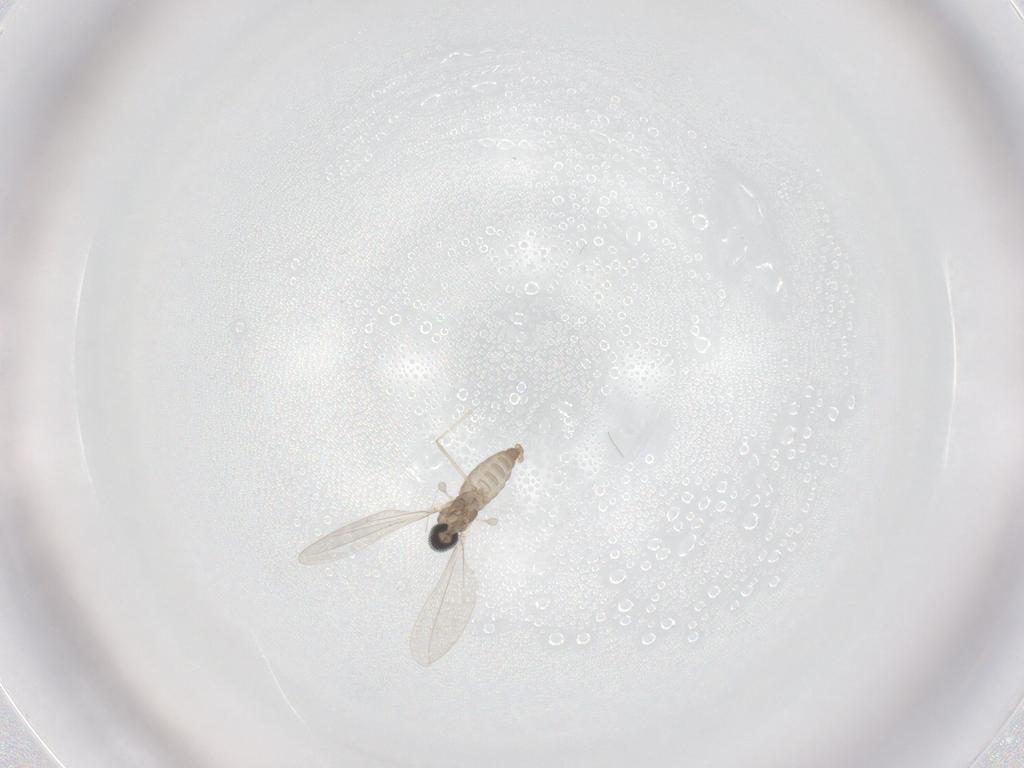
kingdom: Animalia
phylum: Arthropoda
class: Insecta
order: Diptera
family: Cecidomyiidae
